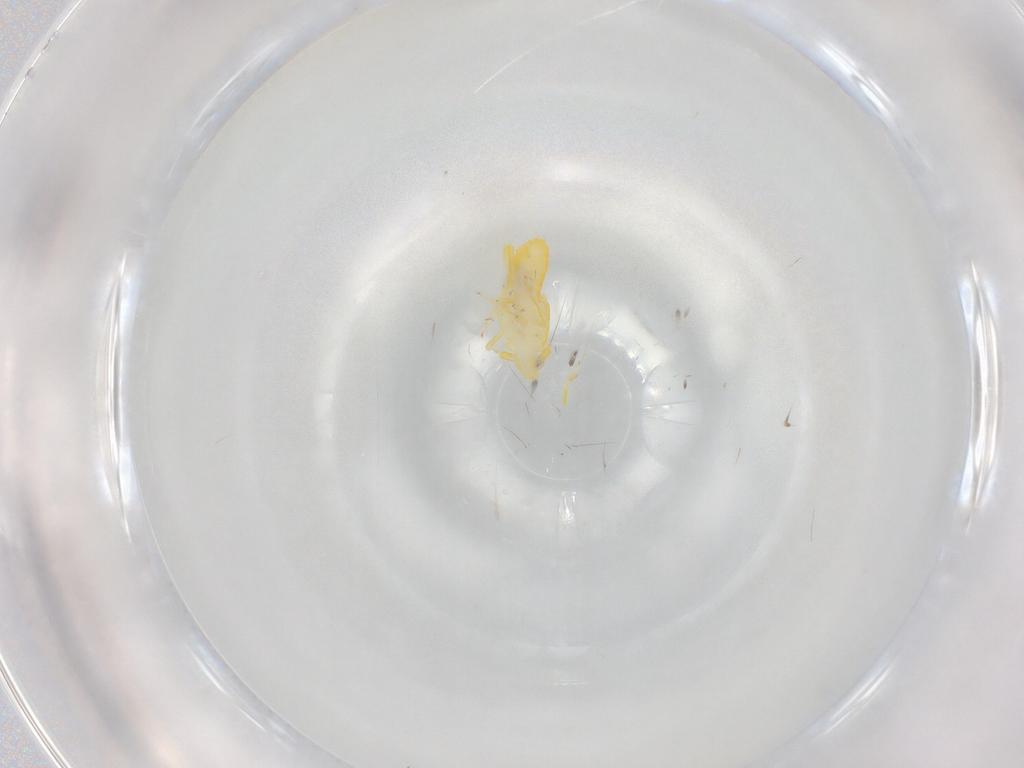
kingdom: Animalia
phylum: Arthropoda
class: Insecta
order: Hemiptera
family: Delphacidae
